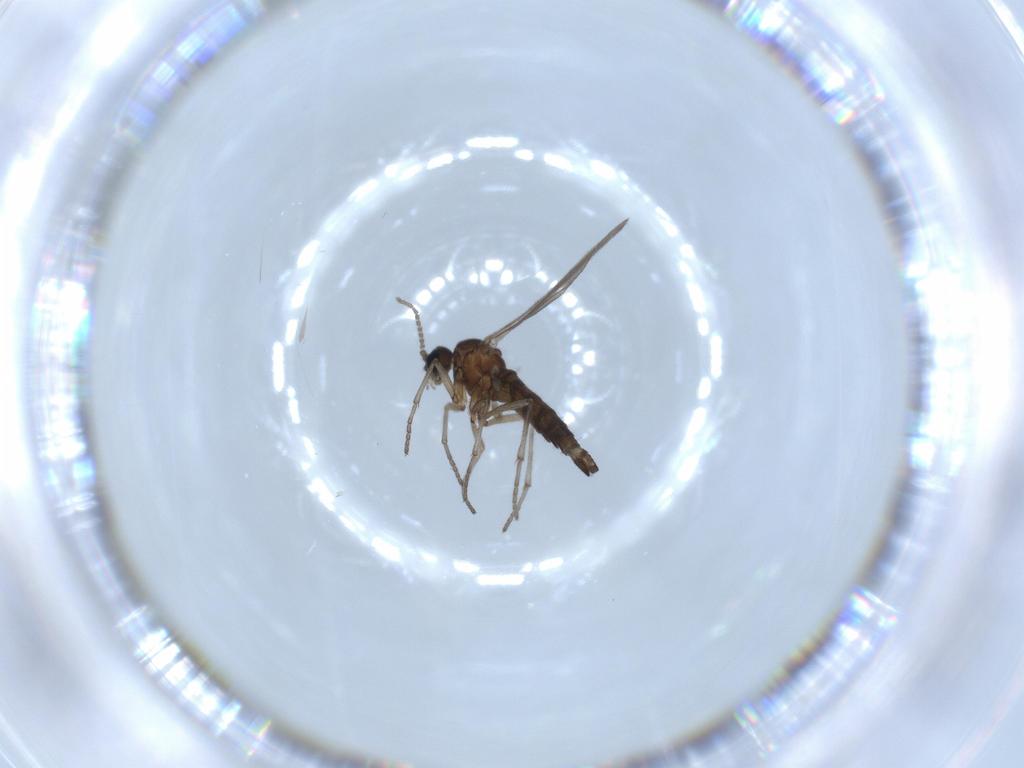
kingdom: Animalia
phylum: Arthropoda
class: Insecta
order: Diptera
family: Sciaridae
